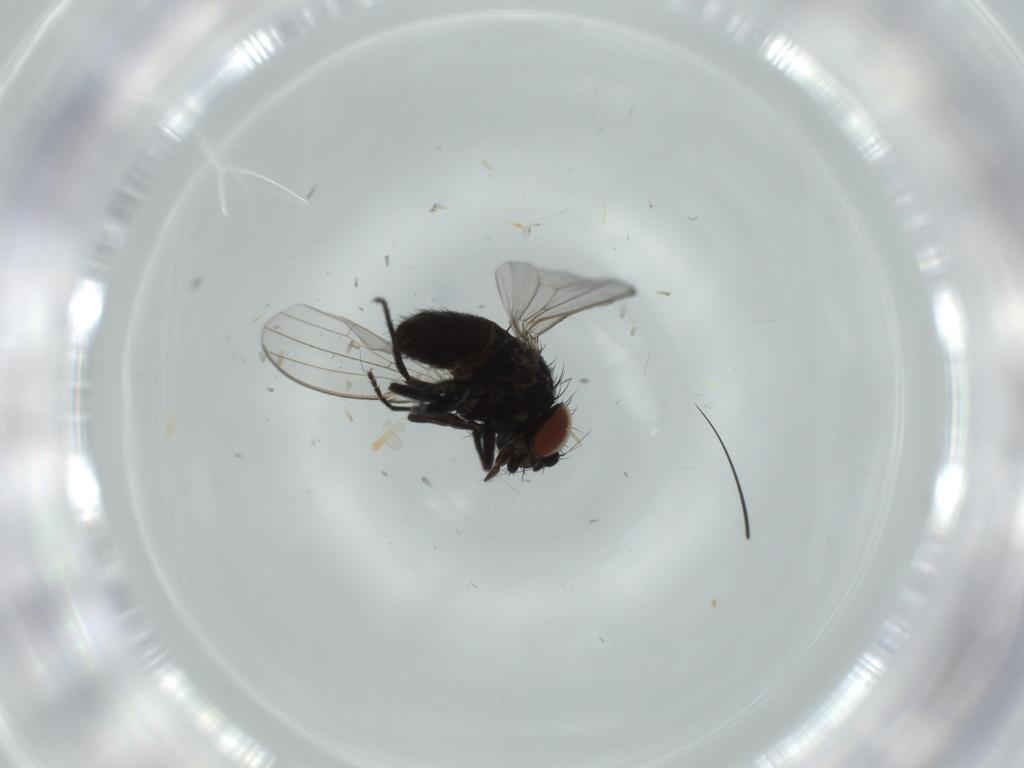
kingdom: Animalia
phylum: Arthropoda
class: Insecta
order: Diptera
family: Milichiidae
